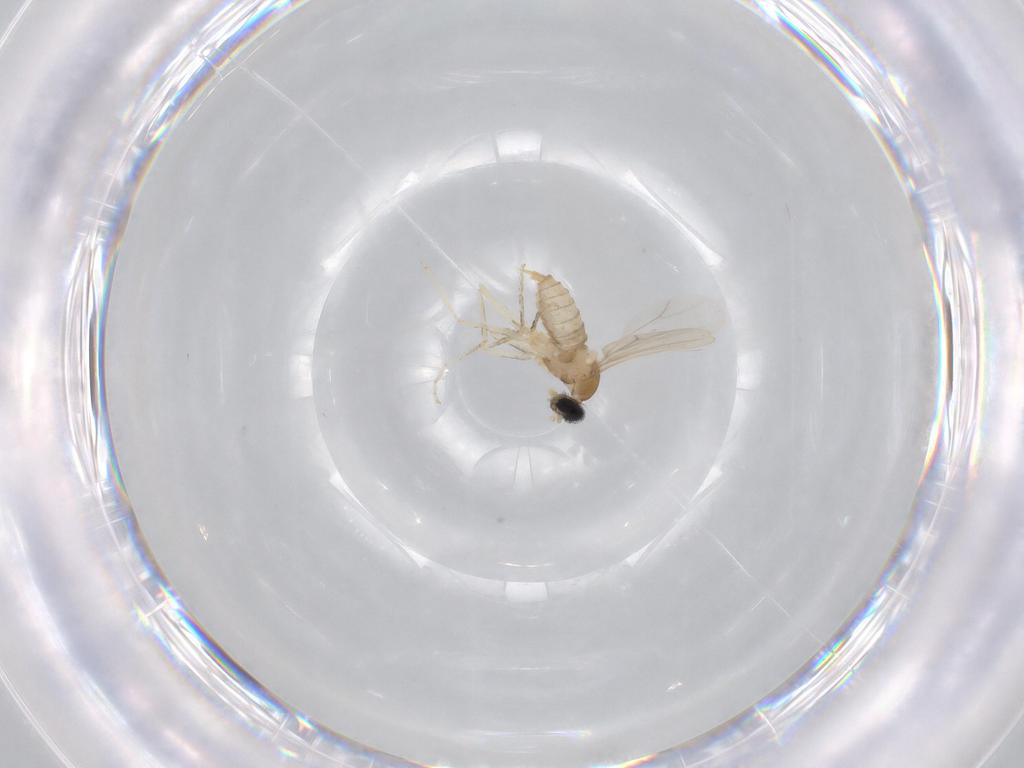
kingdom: Animalia
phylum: Arthropoda
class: Insecta
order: Diptera
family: Cecidomyiidae
